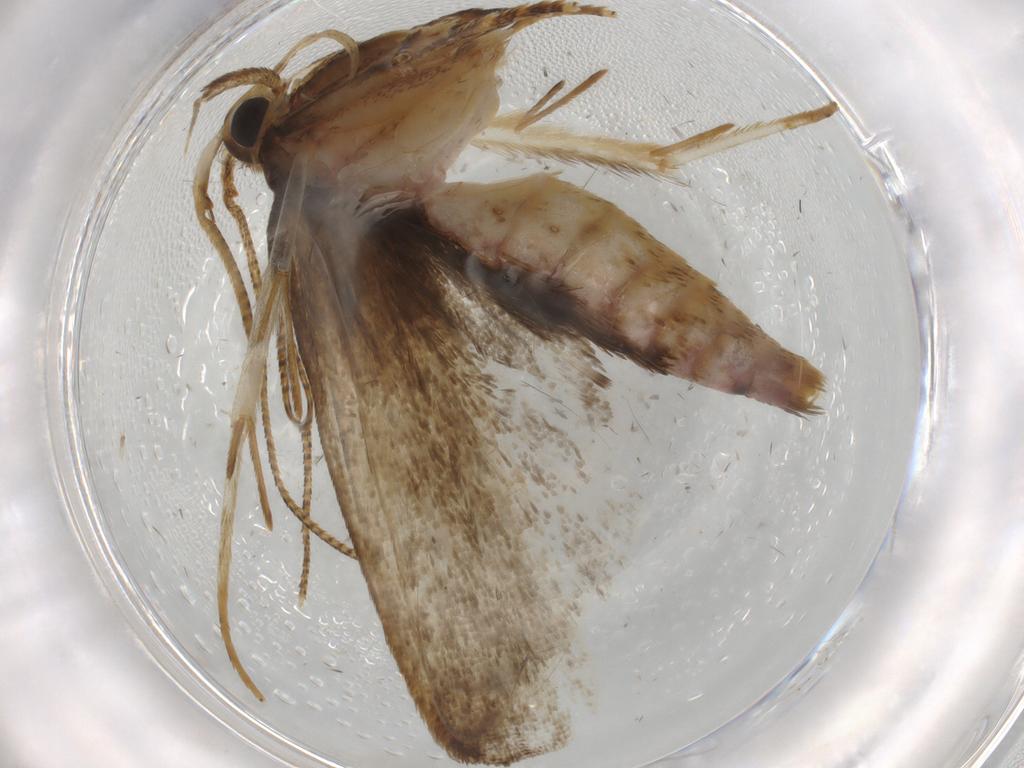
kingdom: Animalia
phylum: Arthropoda
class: Insecta
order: Lepidoptera
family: Autostichidae
